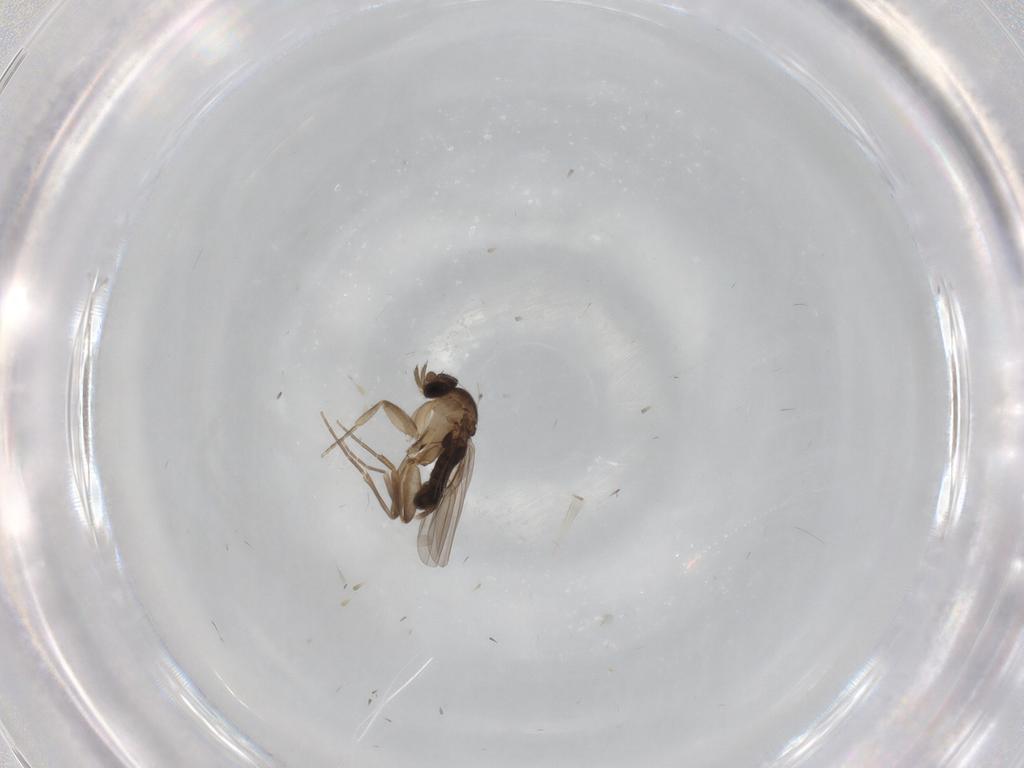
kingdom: Animalia
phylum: Arthropoda
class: Insecta
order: Diptera
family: Phoridae
